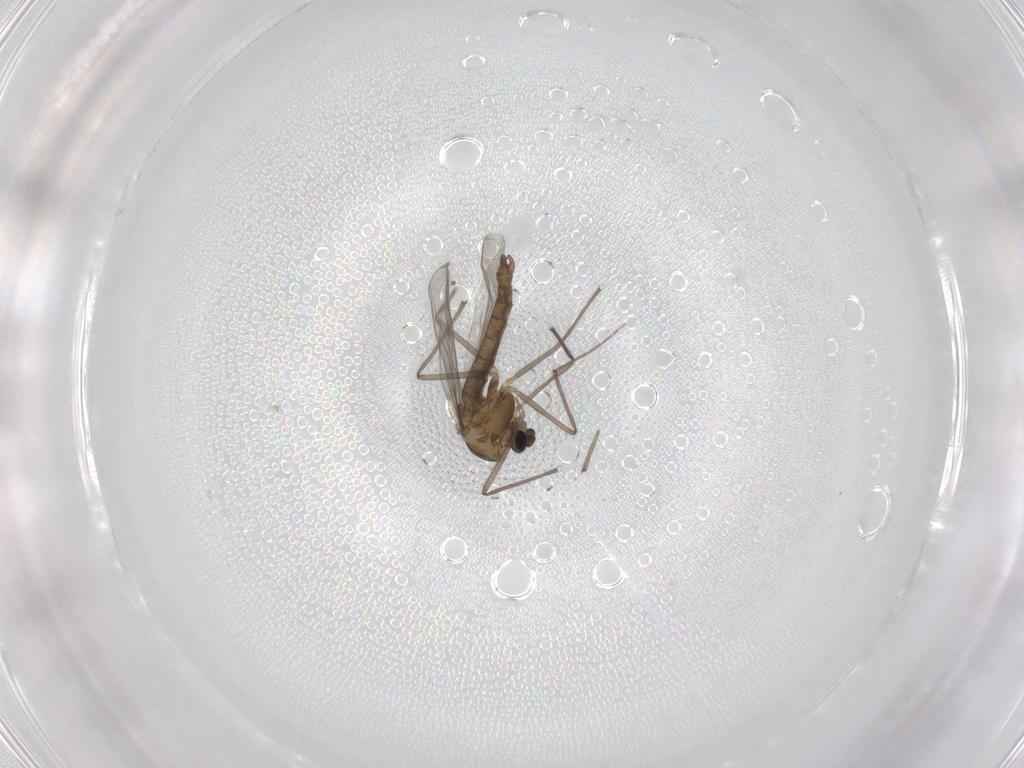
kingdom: Animalia
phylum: Arthropoda
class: Insecta
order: Diptera
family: Chironomidae
